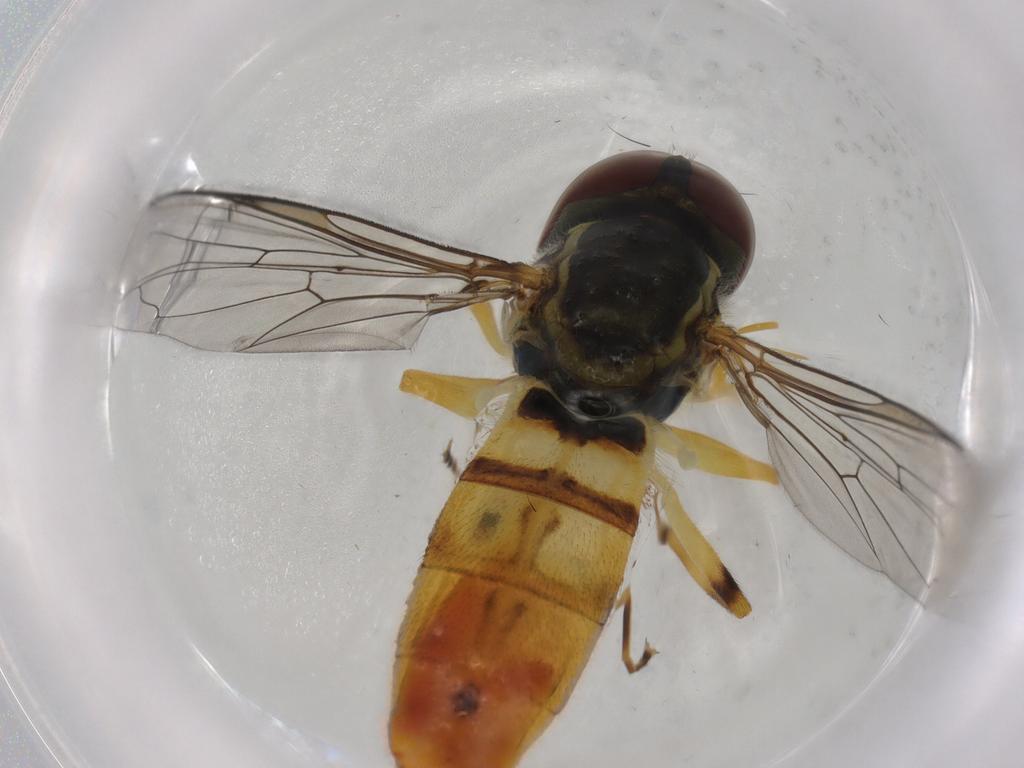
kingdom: Animalia
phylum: Arthropoda
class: Insecta
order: Diptera
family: Syrphidae
